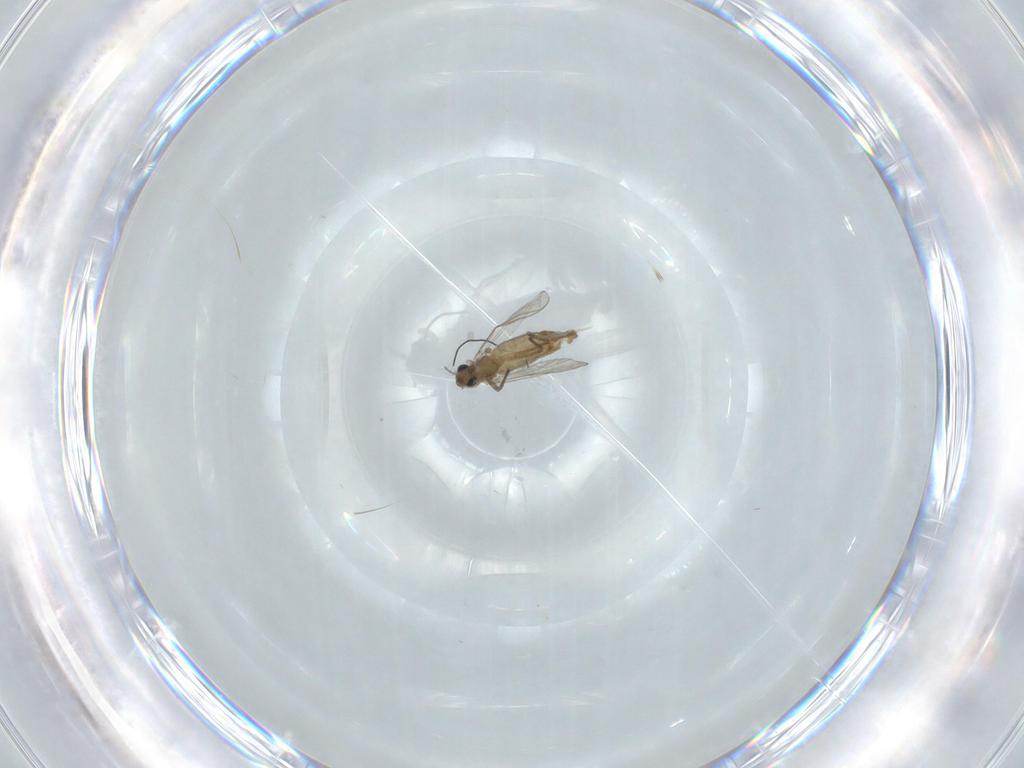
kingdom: Animalia
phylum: Arthropoda
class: Insecta
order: Diptera
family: Chironomidae
